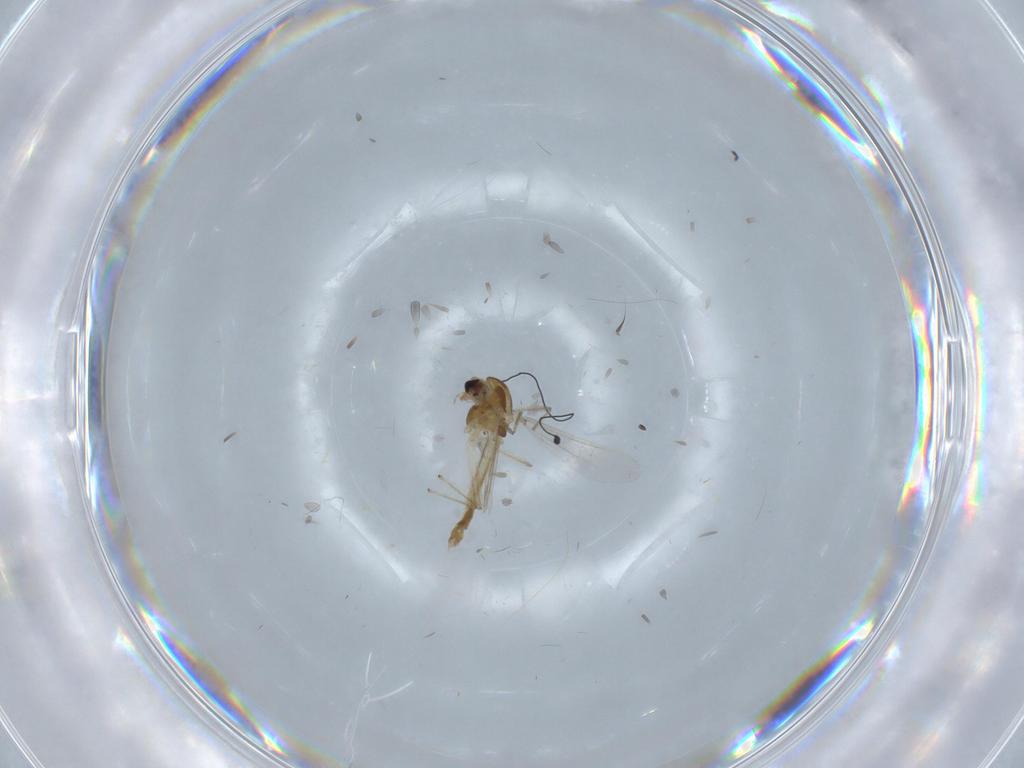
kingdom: Animalia
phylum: Arthropoda
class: Insecta
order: Diptera
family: Chironomidae
